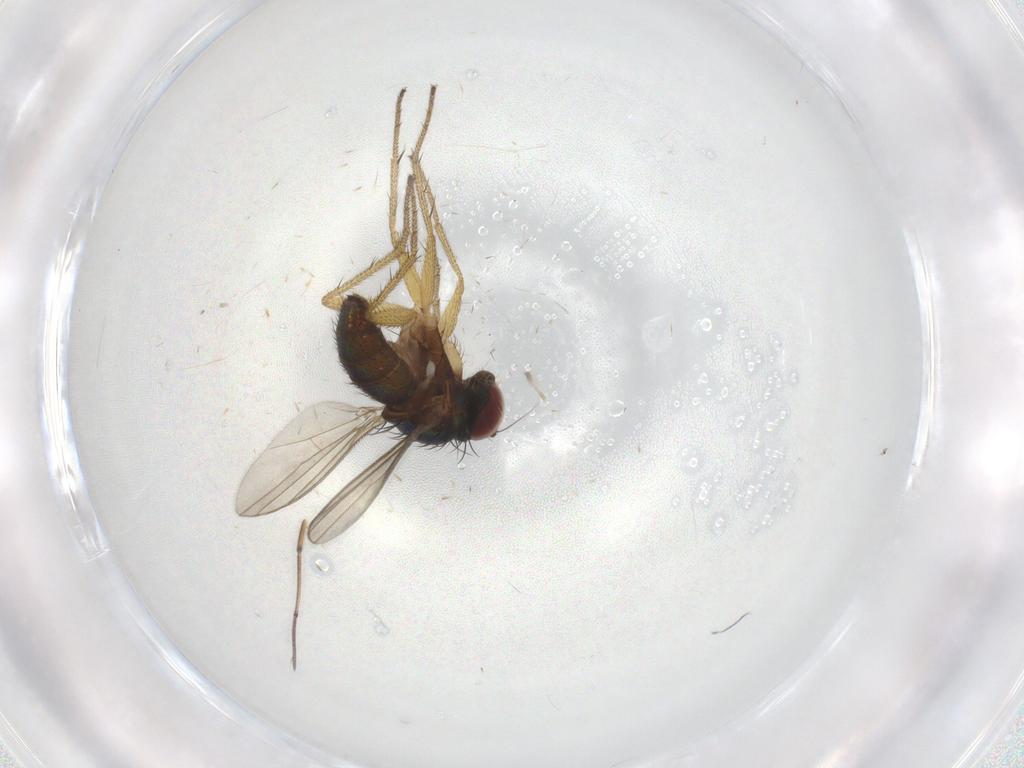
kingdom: Animalia
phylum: Arthropoda
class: Insecta
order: Diptera
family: Dolichopodidae
